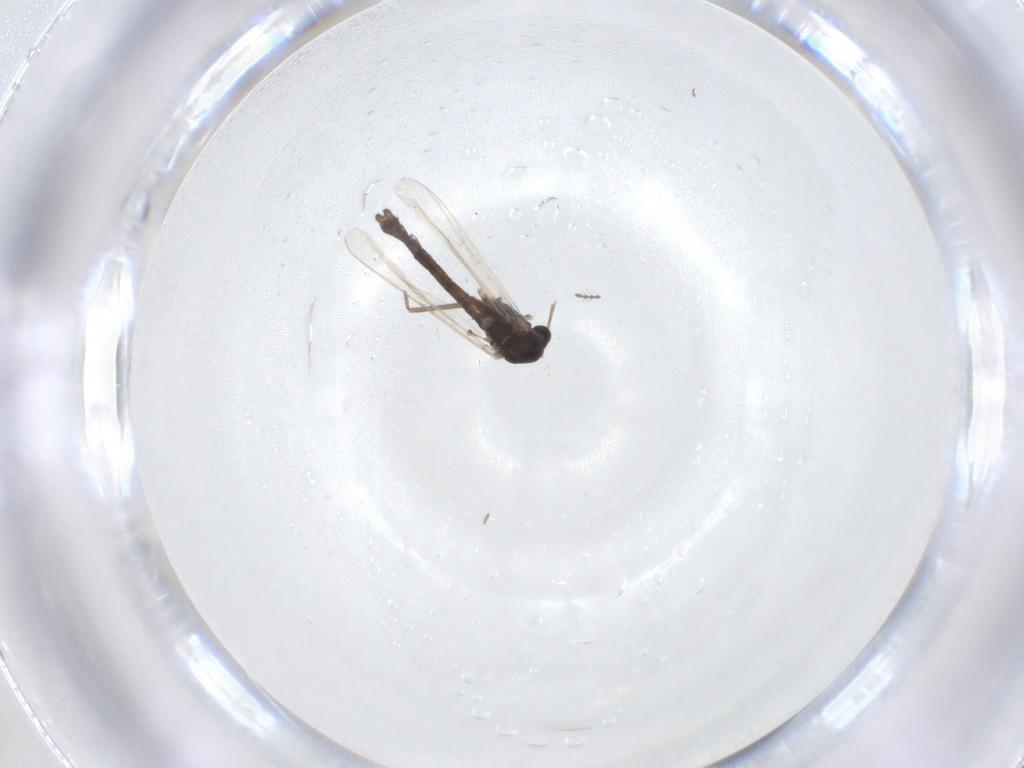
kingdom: Animalia
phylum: Arthropoda
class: Insecta
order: Diptera
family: Chironomidae
